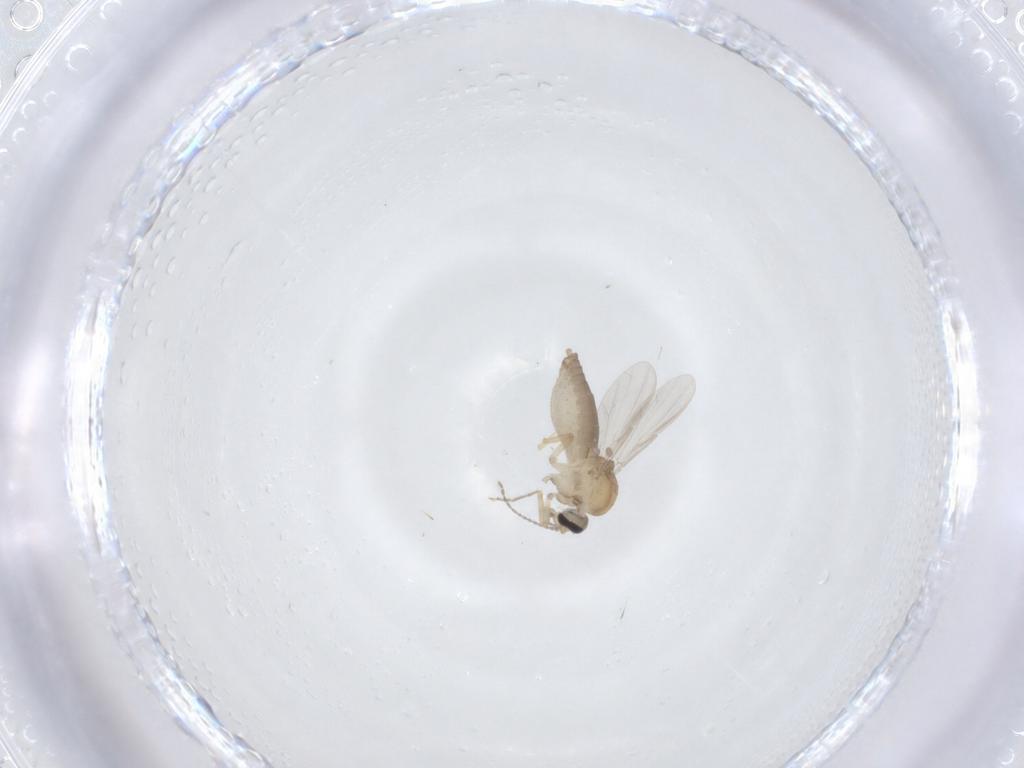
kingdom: Animalia
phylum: Arthropoda
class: Insecta
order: Diptera
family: Ceratopogonidae
